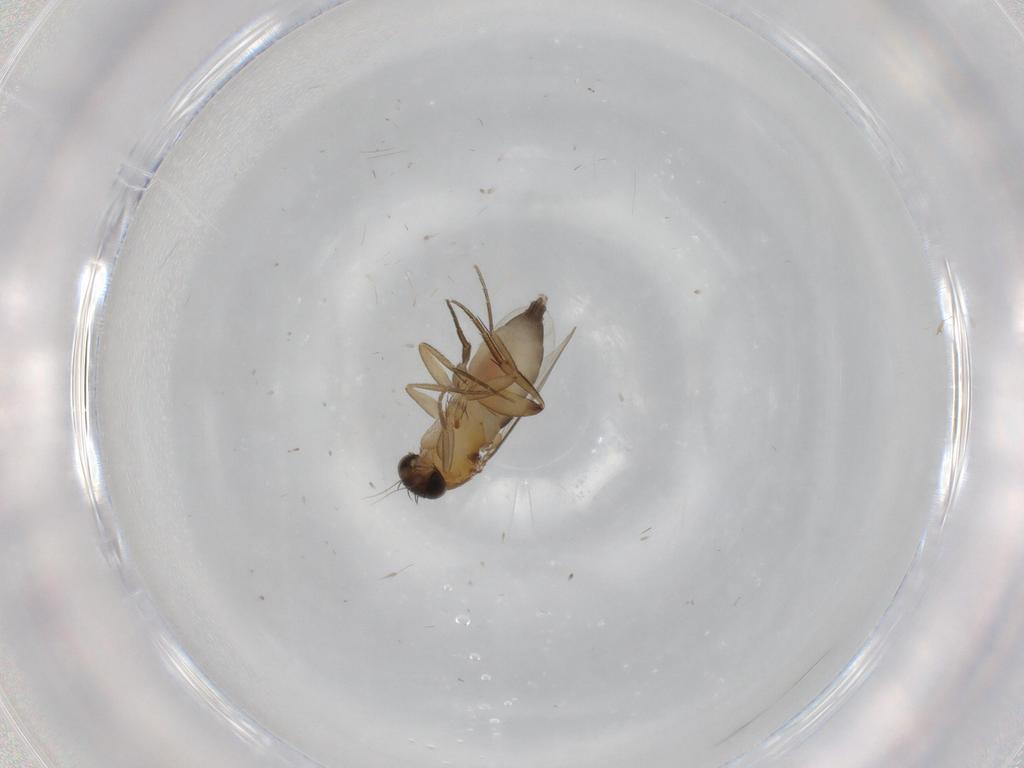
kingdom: Animalia
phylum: Arthropoda
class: Insecta
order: Diptera
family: Phoridae
